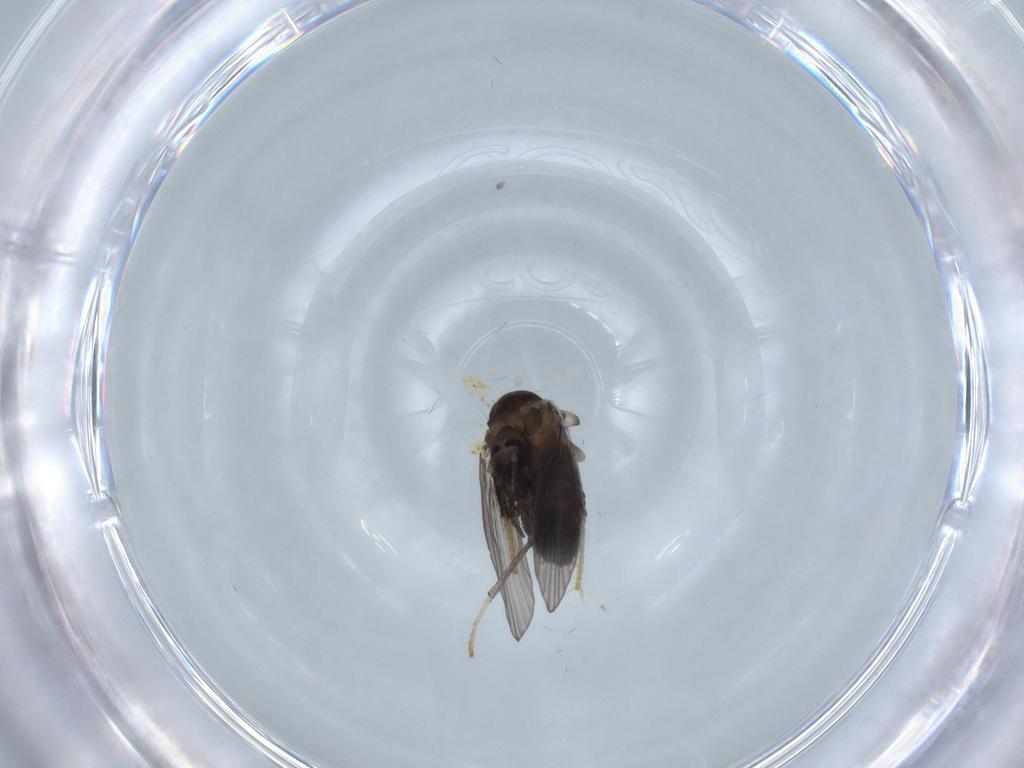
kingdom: Animalia
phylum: Arthropoda
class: Insecta
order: Diptera
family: Psychodidae
